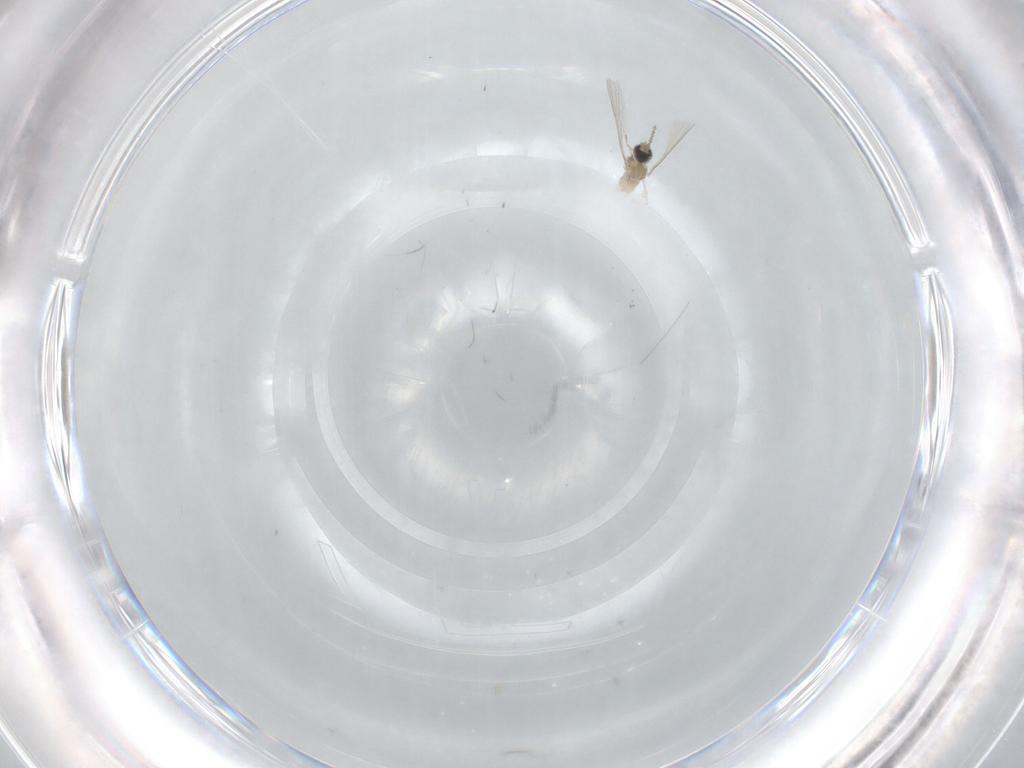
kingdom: Animalia
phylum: Arthropoda
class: Insecta
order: Diptera
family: Cecidomyiidae
